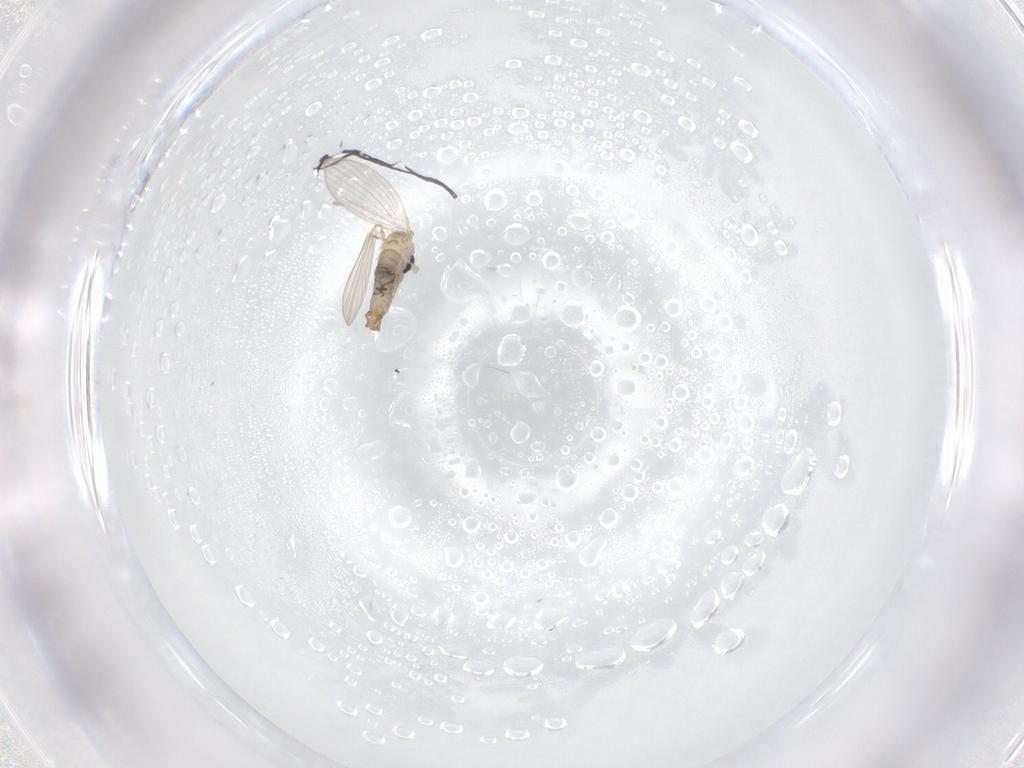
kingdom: Animalia
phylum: Arthropoda
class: Insecta
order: Diptera
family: Psychodidae
